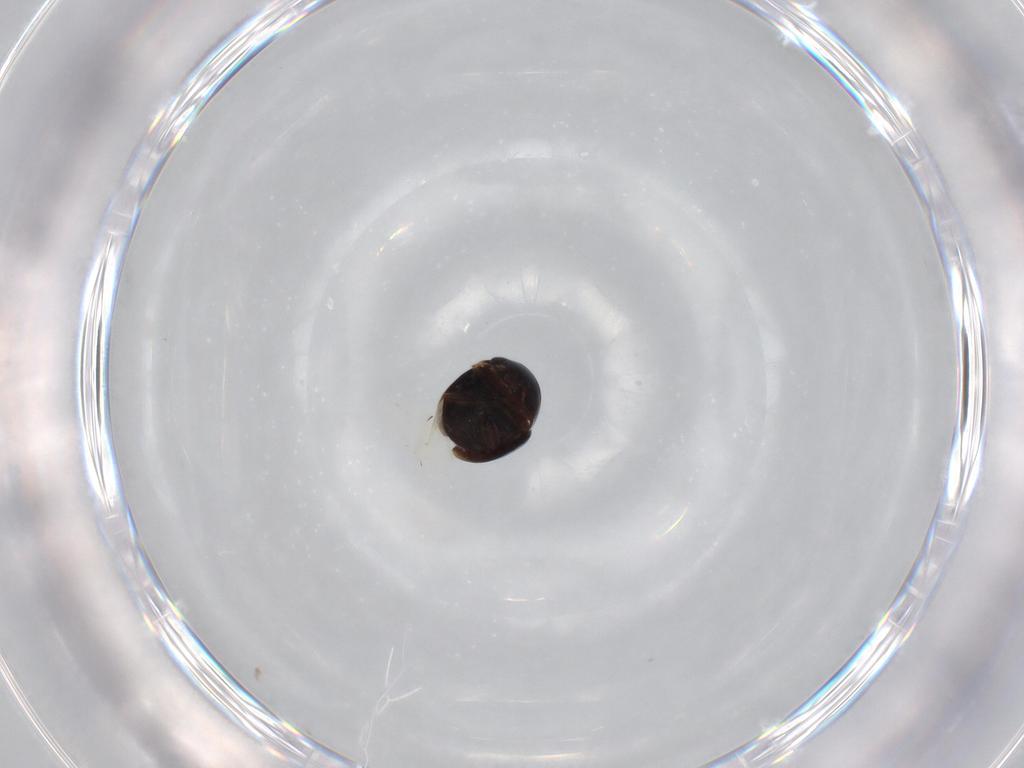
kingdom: Animalia
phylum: Arthropoda
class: Insecta
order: Coleoptera
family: Cybocephalidae
